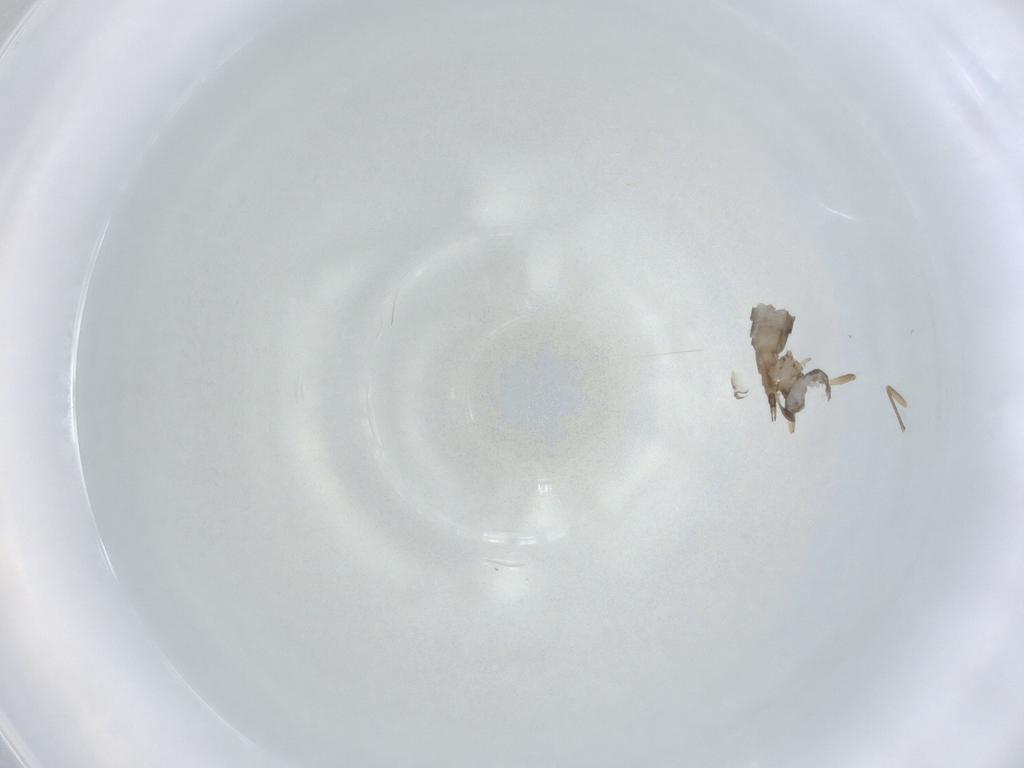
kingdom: Animalia
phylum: Arthropoda
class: Insecta
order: Diptera
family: Sciaridae
